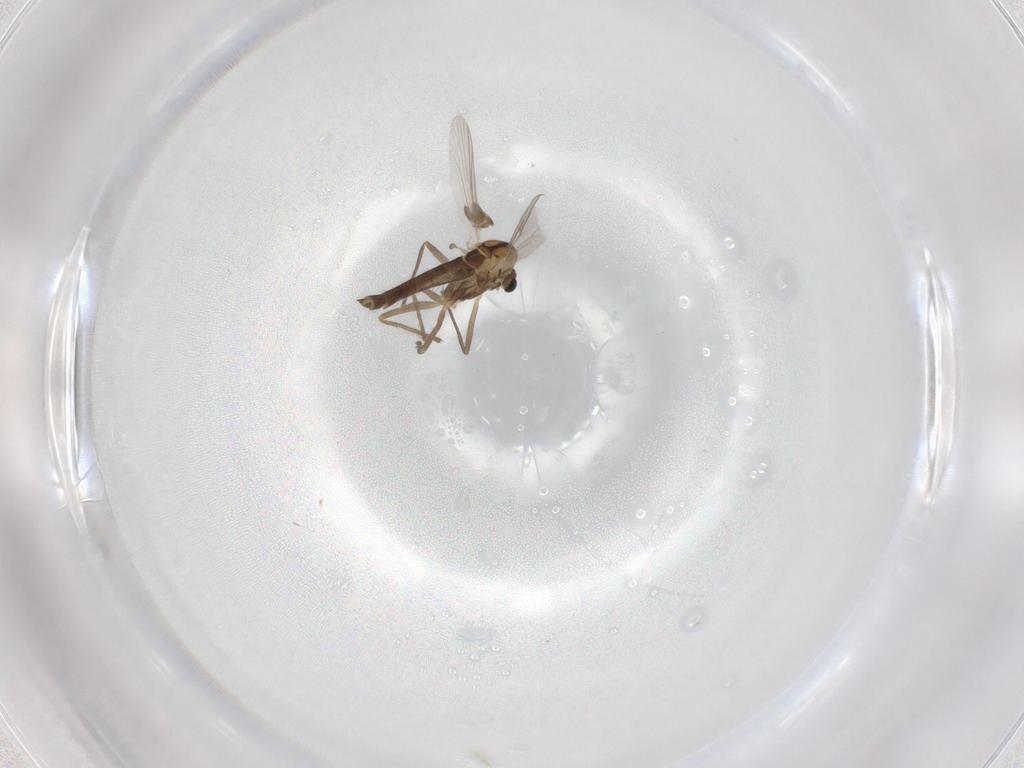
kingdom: Animalia
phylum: Arthropoda
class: Insecta
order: Diptera
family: Chironomidae
